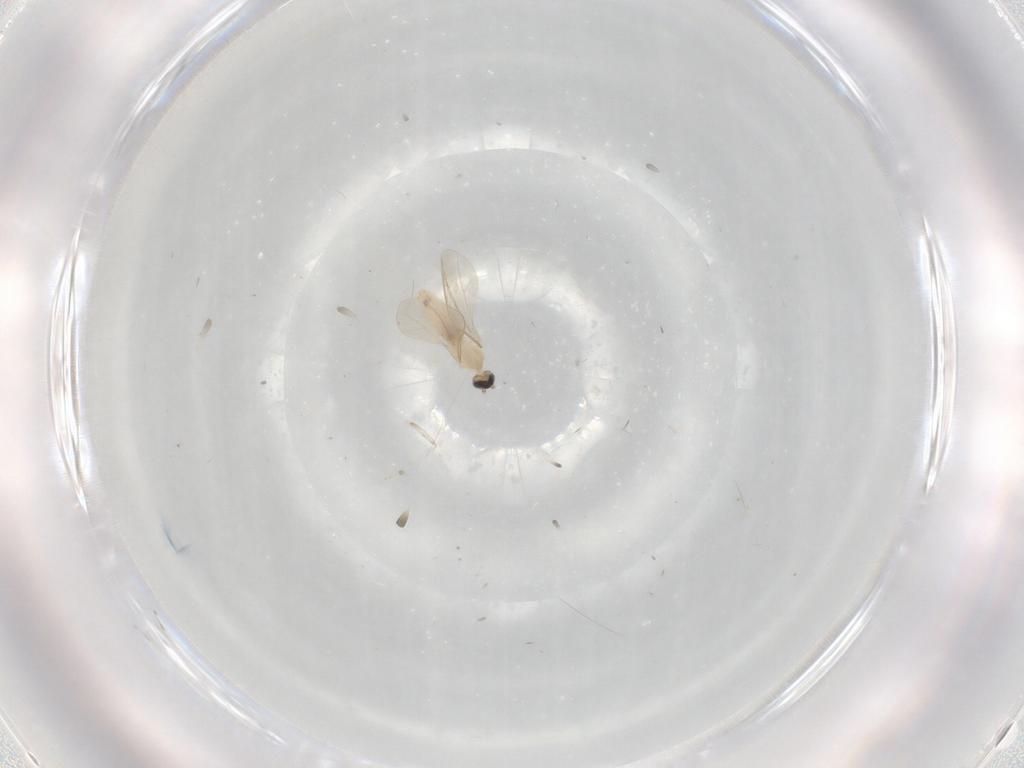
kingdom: Animalia
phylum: Arthropoda
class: Insecta
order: Diptera
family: Cecidomyiidae
